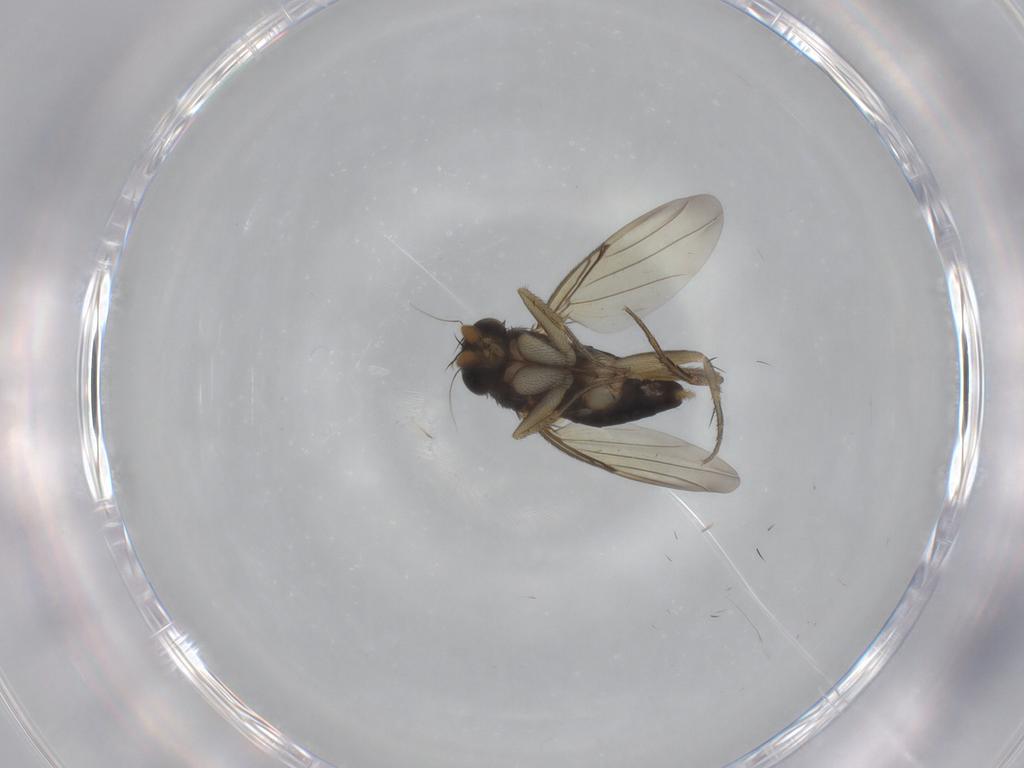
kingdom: Animalia
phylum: Arthropoda
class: Insecta
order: Diptera
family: Phoridae
